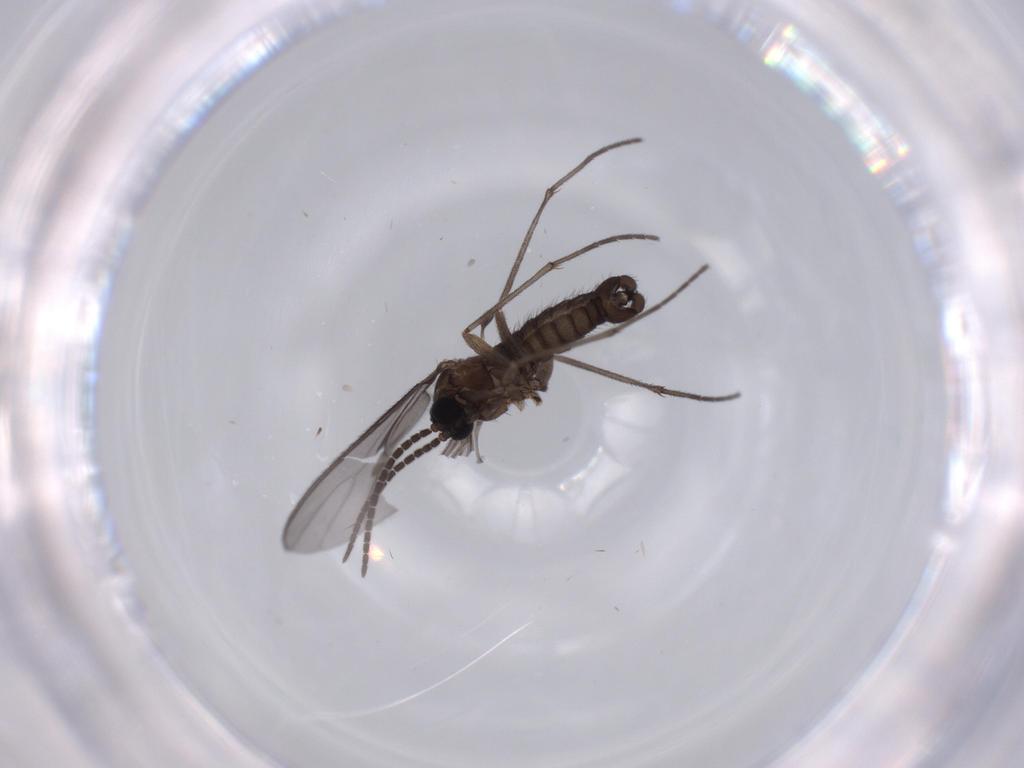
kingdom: Animalia
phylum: Arthropoda
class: Insecta
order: Diptera
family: Sciaridae
